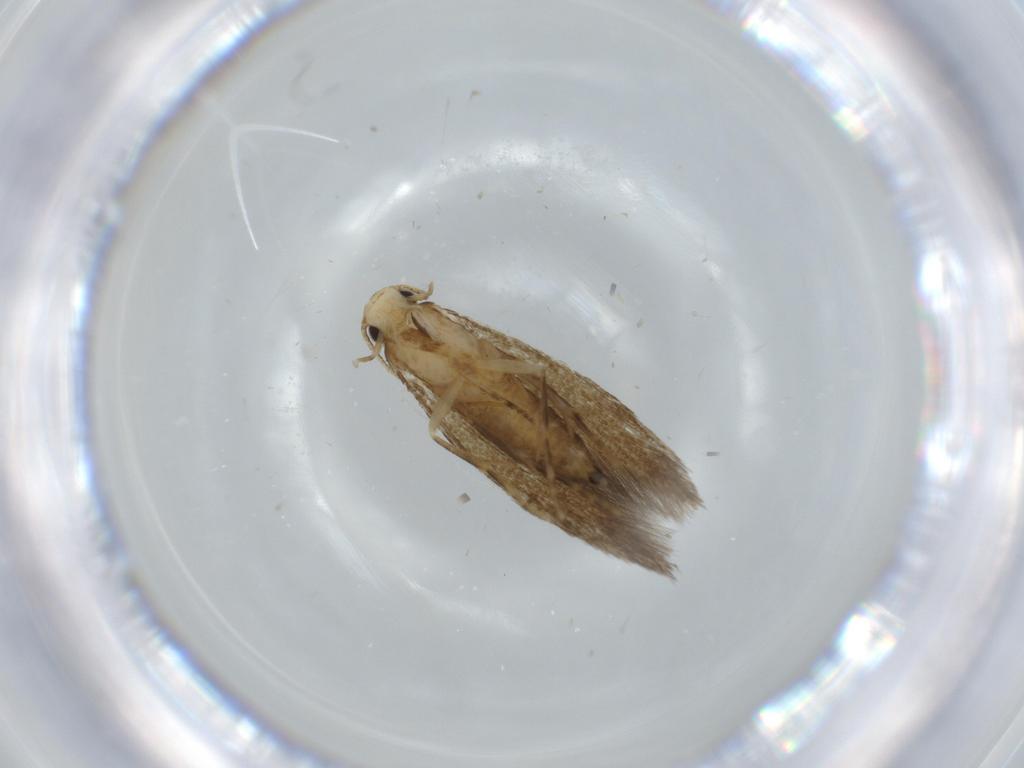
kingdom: Animalia
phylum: Arthropoda
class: Insecta
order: Lepidoptera
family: Tineidae
